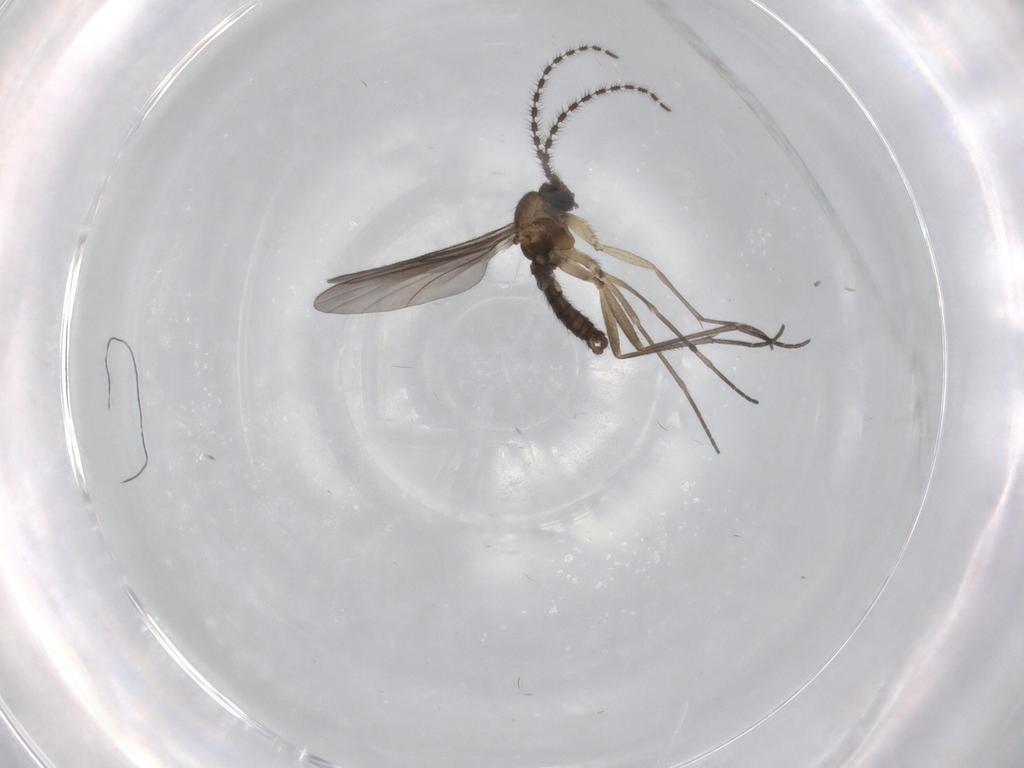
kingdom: Animalia
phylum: Arthropoda
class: Insecta
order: Diptera
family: Sciaridae
